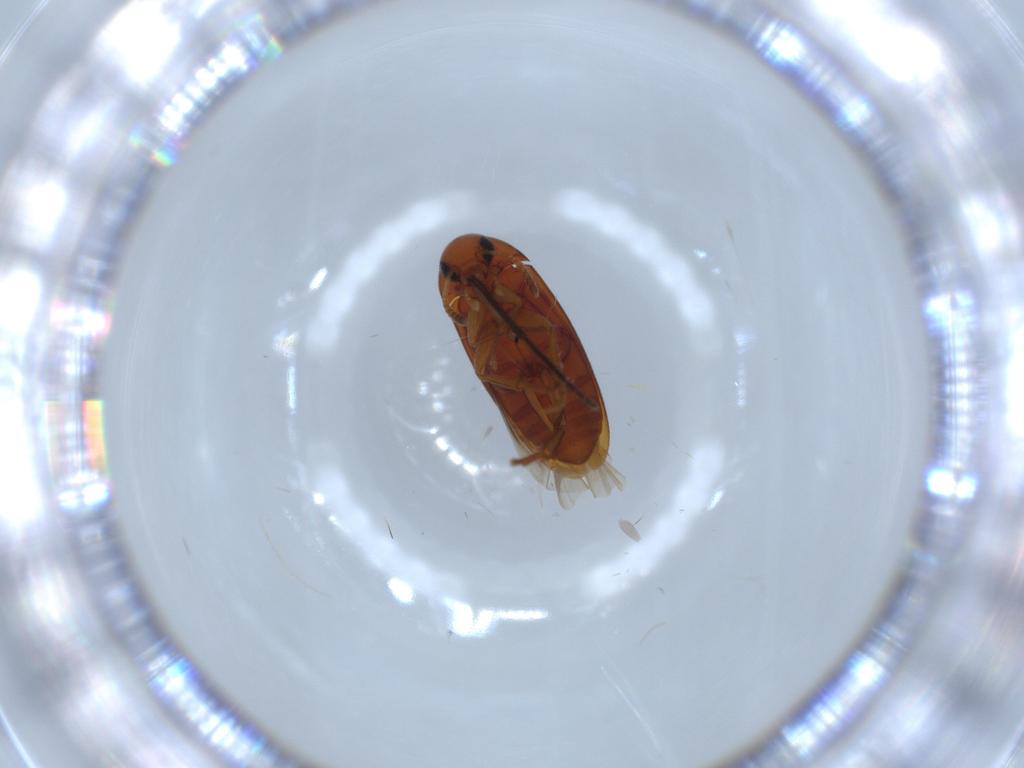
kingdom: Animalia
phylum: Arthropoda
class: Insecta
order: Coleoptera
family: Scraptiidae
